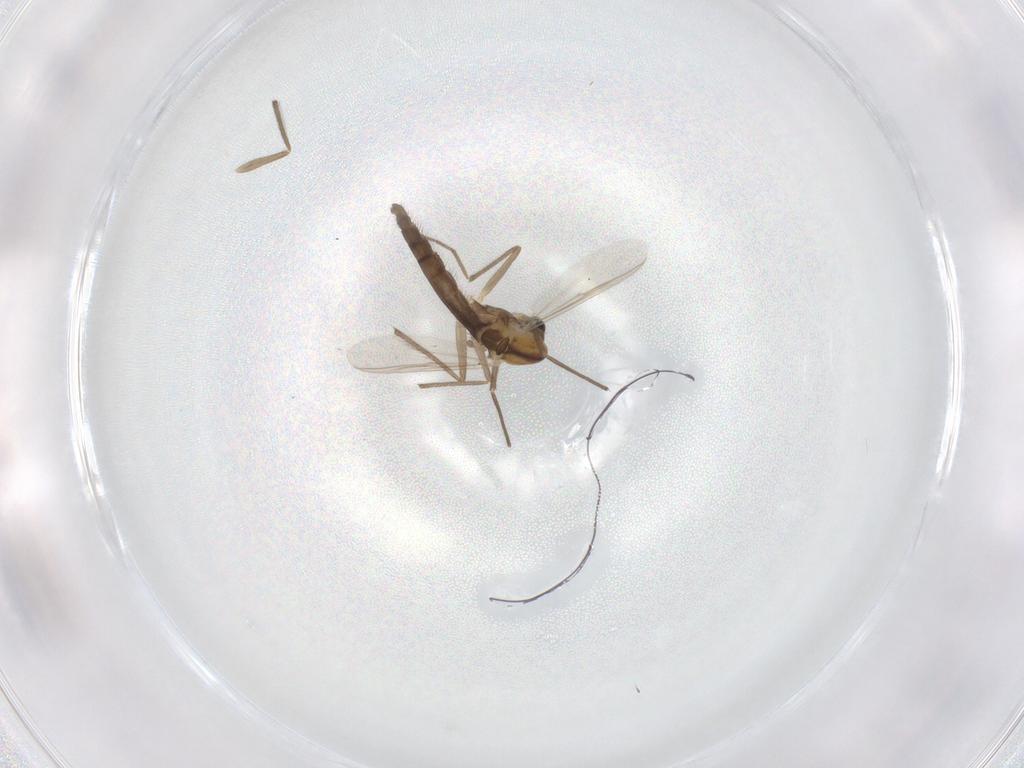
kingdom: Animalia
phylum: Arthropoda
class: Insecta
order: Diptera
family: Chironomidae
